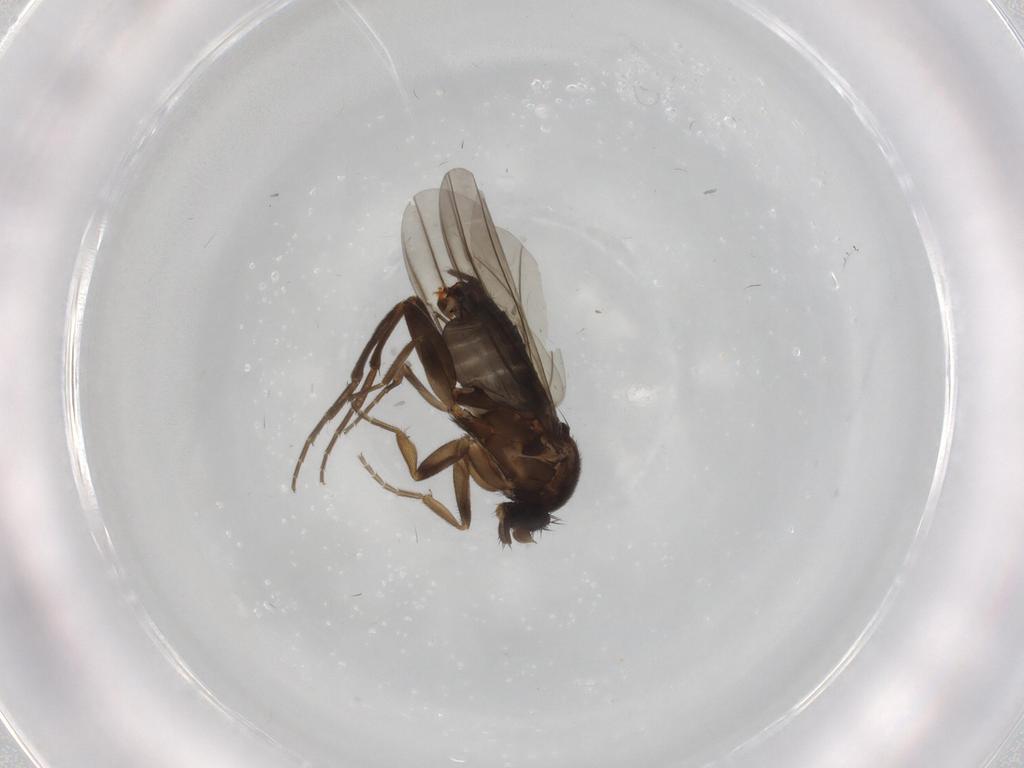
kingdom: Animalia
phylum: Arthropoda
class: Insecta
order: Diptera
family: Sciaridae
